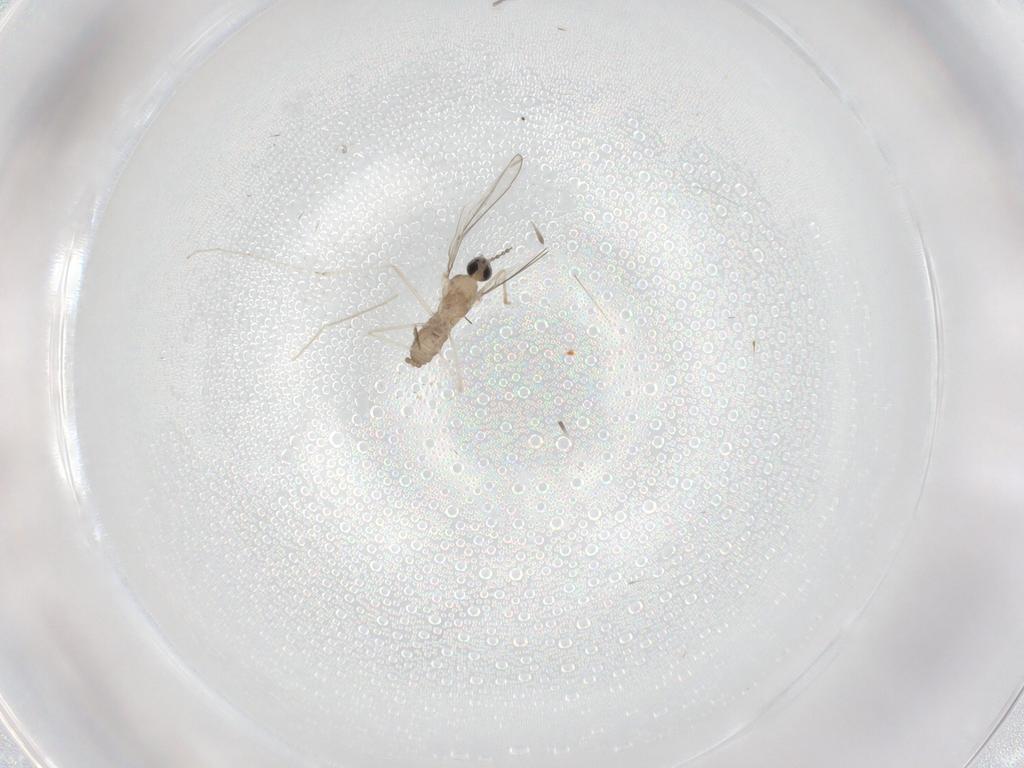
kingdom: Animalia
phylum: Arthropoda
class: Insecta
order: Diptera
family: Cecidomyiidae
